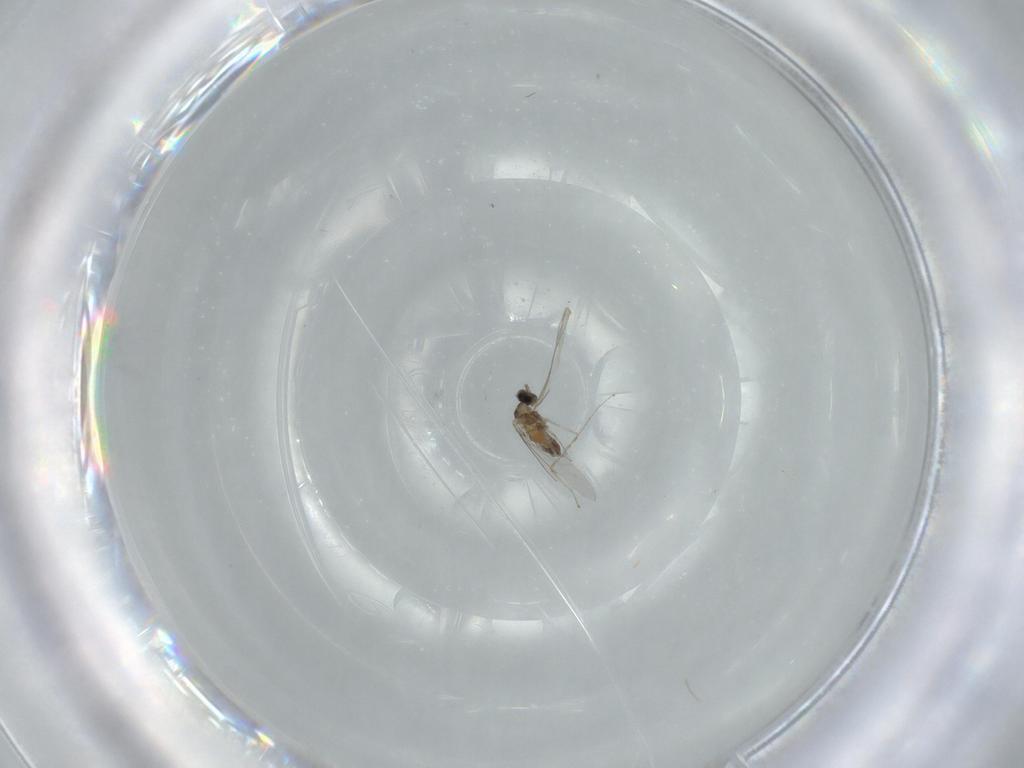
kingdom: Animalia
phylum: Arthropoda
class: Insecta
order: Diptera
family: Cecidomyiidae
